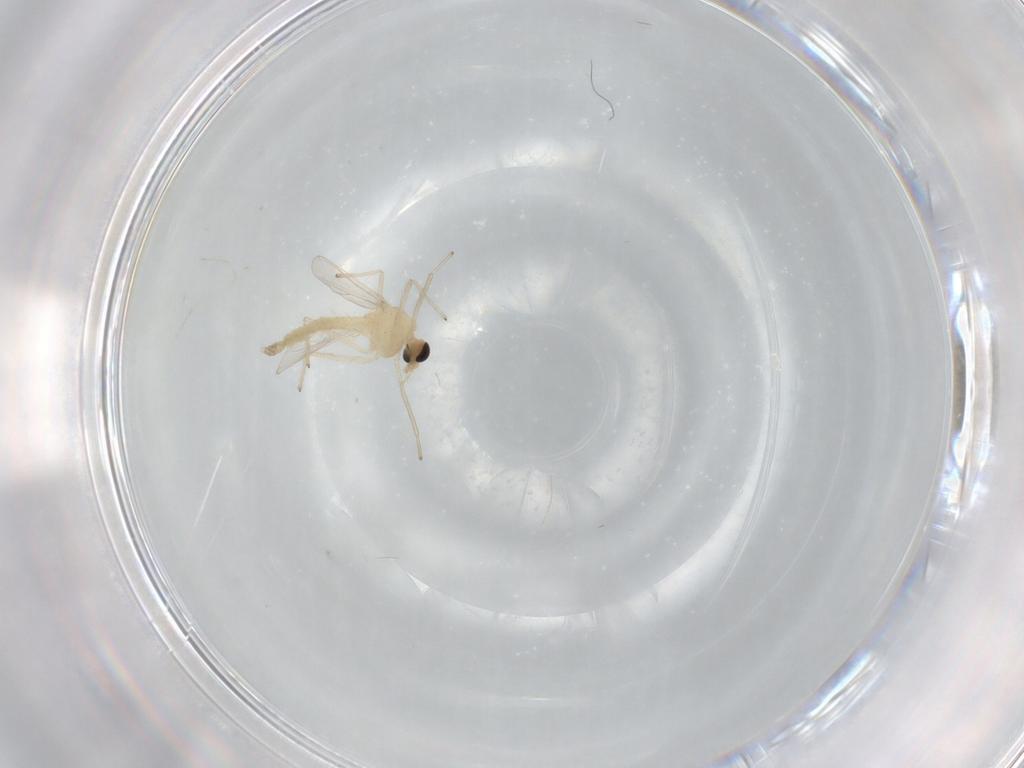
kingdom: Animalia
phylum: Arthropoda
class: Insecta
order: Diptera
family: Chironomidae
